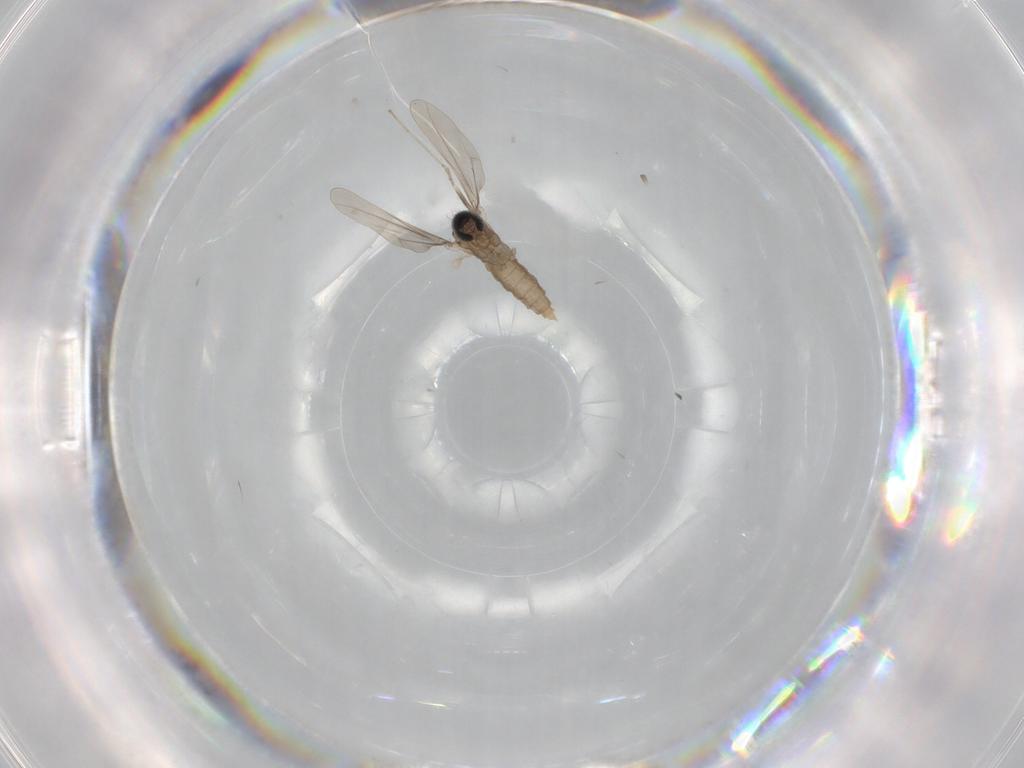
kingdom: Animalia
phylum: Arthropoda
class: Insecta
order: Diptera
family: Cecidomyiidae
